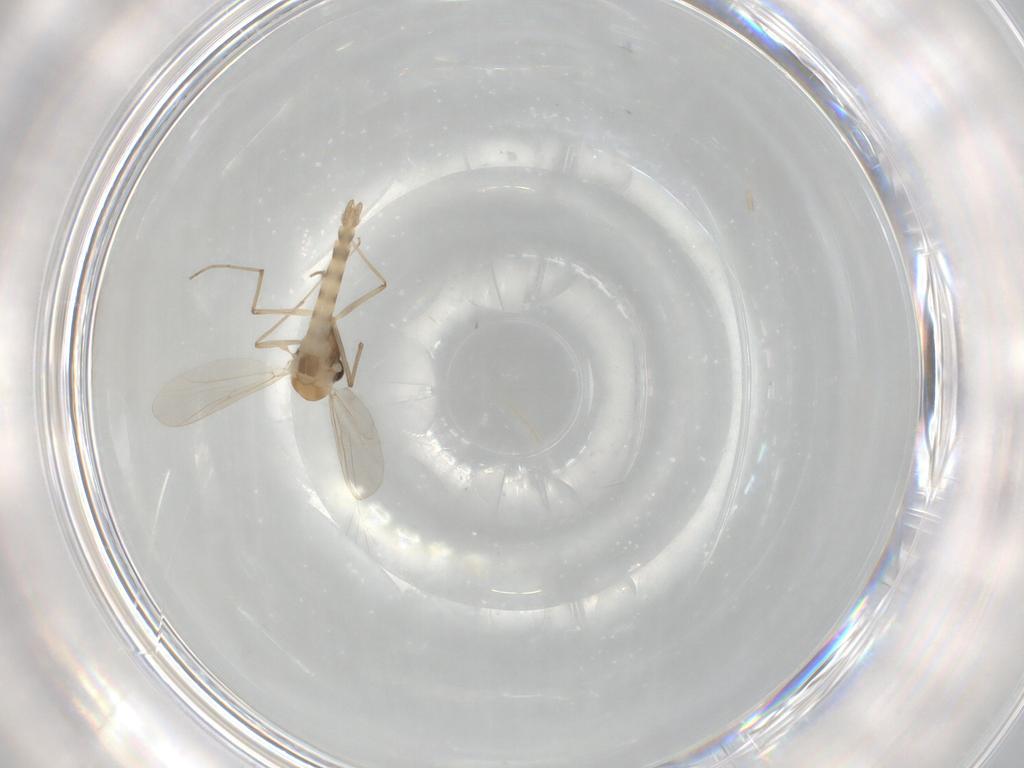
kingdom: Animalia
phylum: Arthropoda
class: Insecta
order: Diptera
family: Chironomidae
